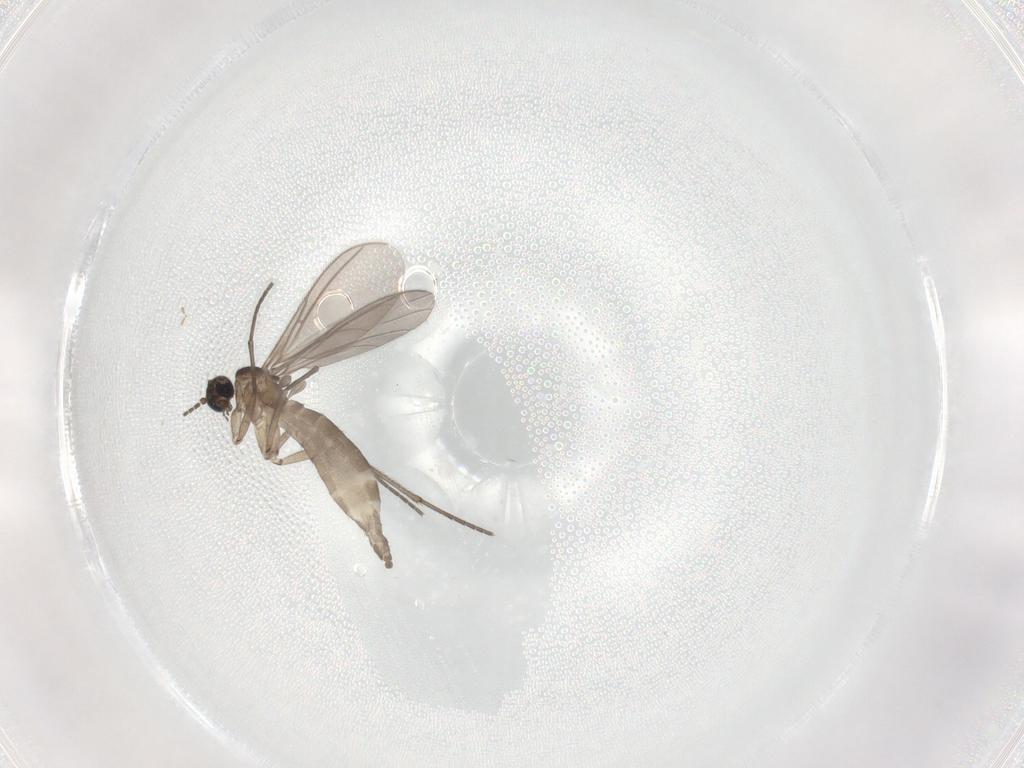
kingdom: Animalia
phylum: Arthropoda
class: Insecta
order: Diptera
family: Sciaridae
